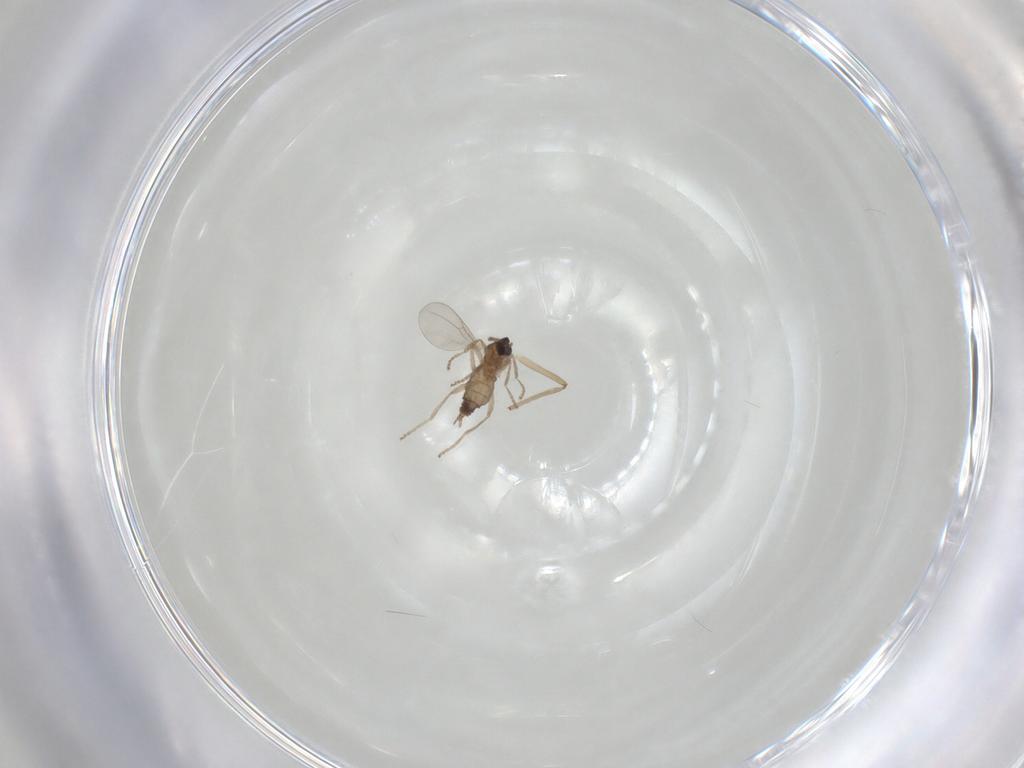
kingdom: Animalia
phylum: Arthropoda
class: Insecta
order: Diptera
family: Cecidomyiidae
